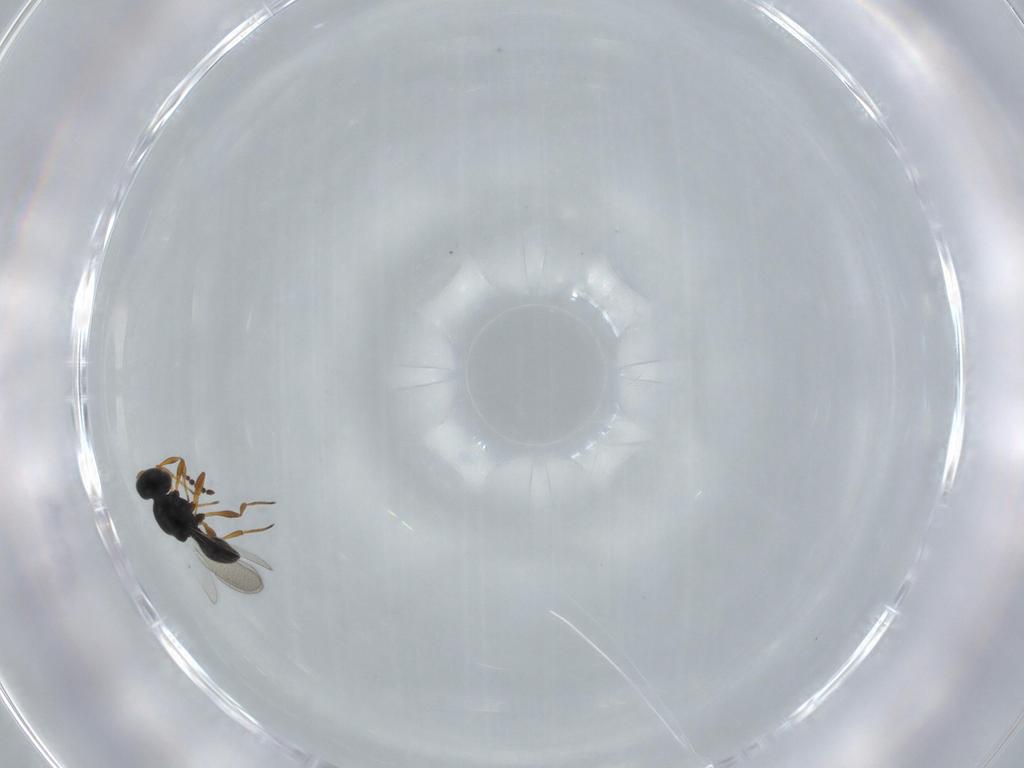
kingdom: Animalia
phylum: Arthropoda
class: Insecta
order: Hymenoptera
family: Platygastridae
